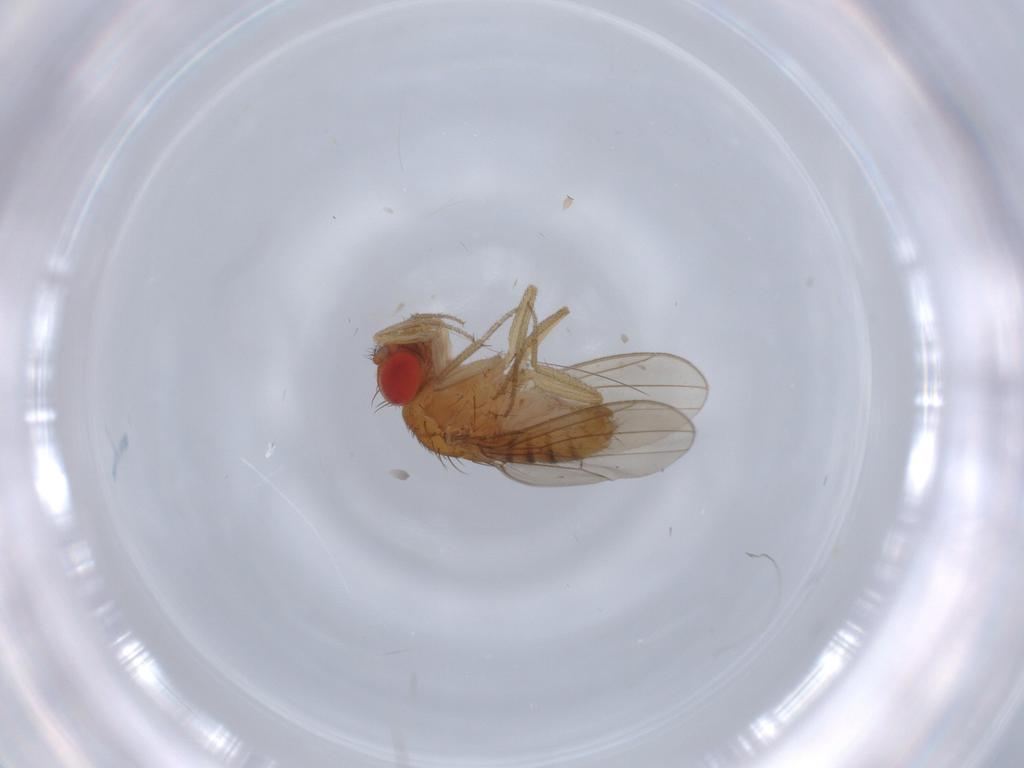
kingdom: Animalia
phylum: Arthropoda
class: Insecta
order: Diptera
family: Drosophilidae
